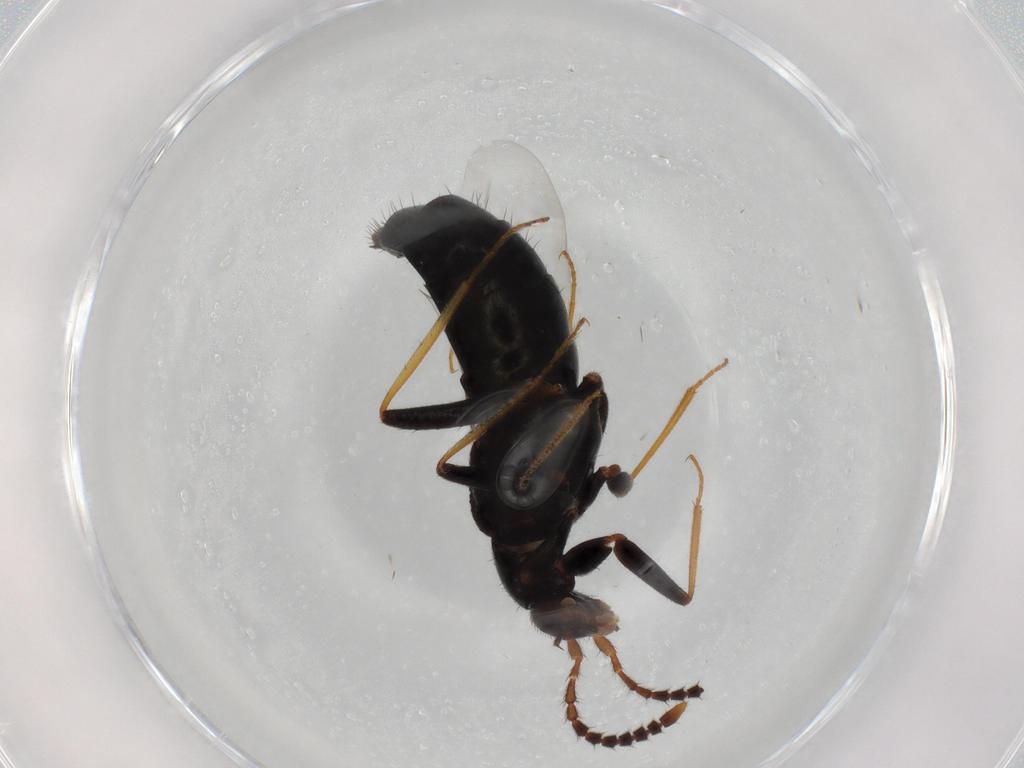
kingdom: Animalia
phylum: Arthropoda
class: Insecta
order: Coleoptera
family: Staphylinidae
